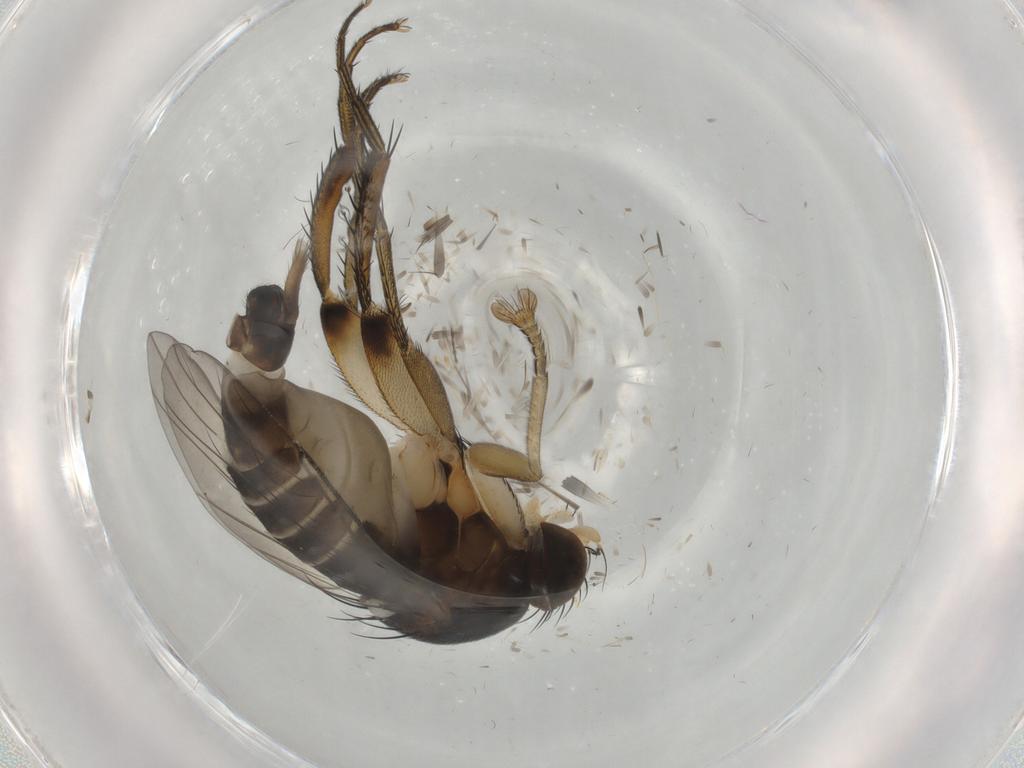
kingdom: Animalia
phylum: Arthropoda
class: Insecta
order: Diptera
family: Phoridae
